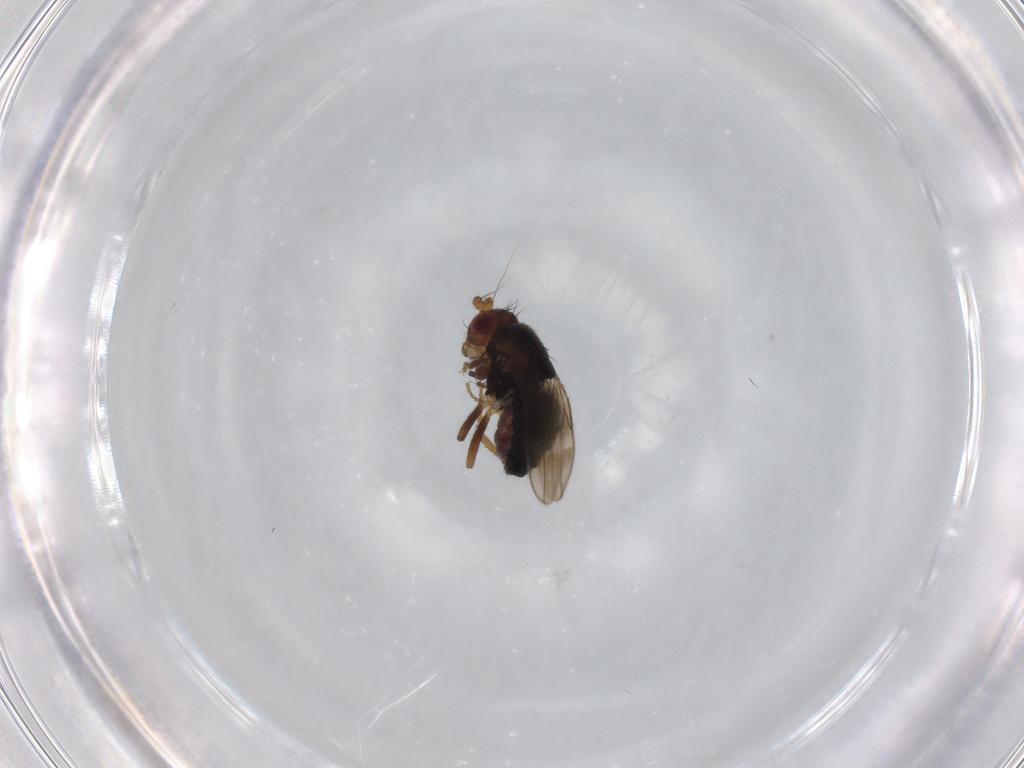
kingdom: Animalia
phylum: Arthropoda
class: Insecta
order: Diptera
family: Sphaeroceridae
